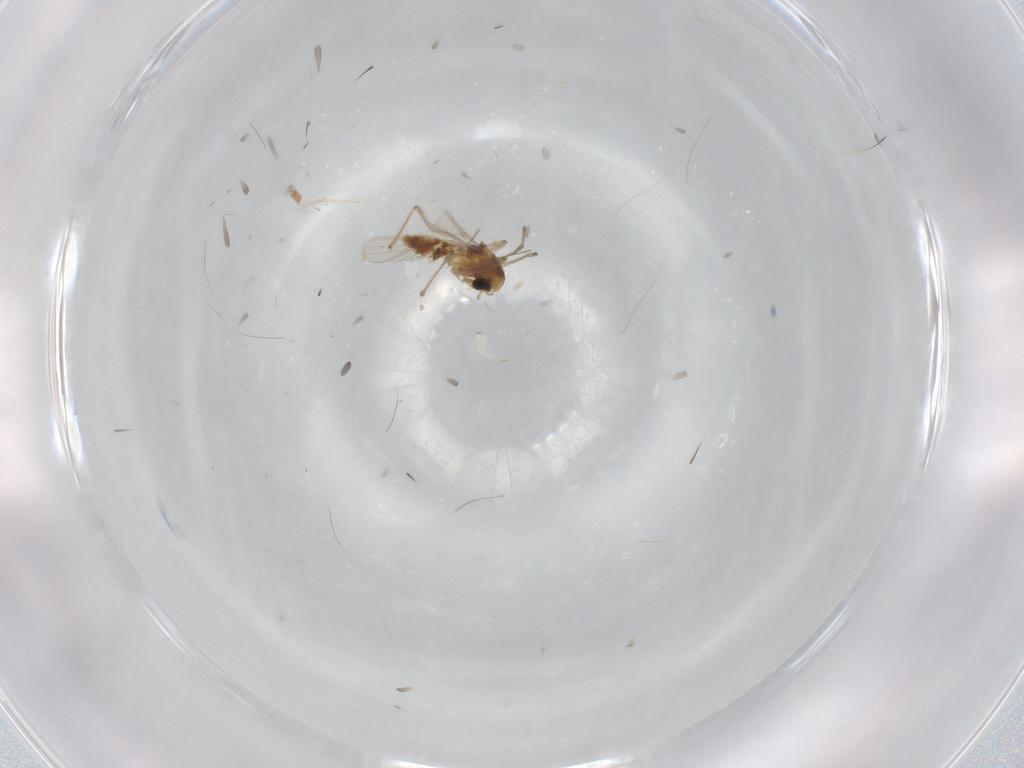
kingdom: Animalia
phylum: Arthropoda
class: Insecta
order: Diptera
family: Chironomidae
